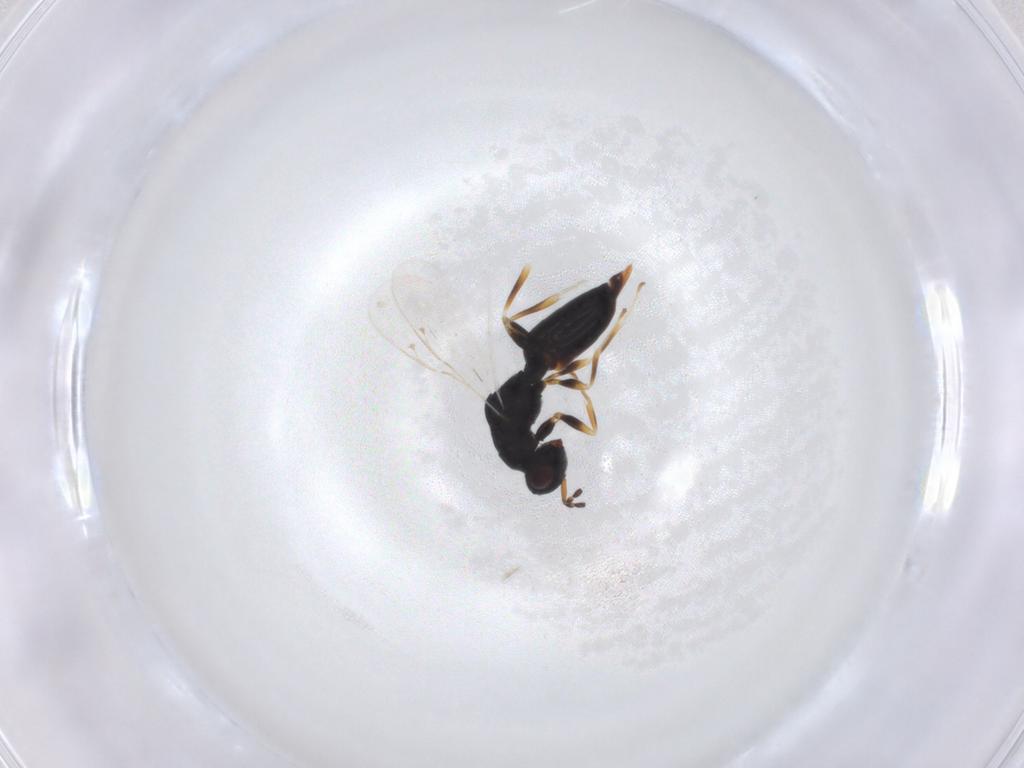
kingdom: Animalia
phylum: Arthropoda
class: Insecta
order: Hymenoptera
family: Eurytomidae
